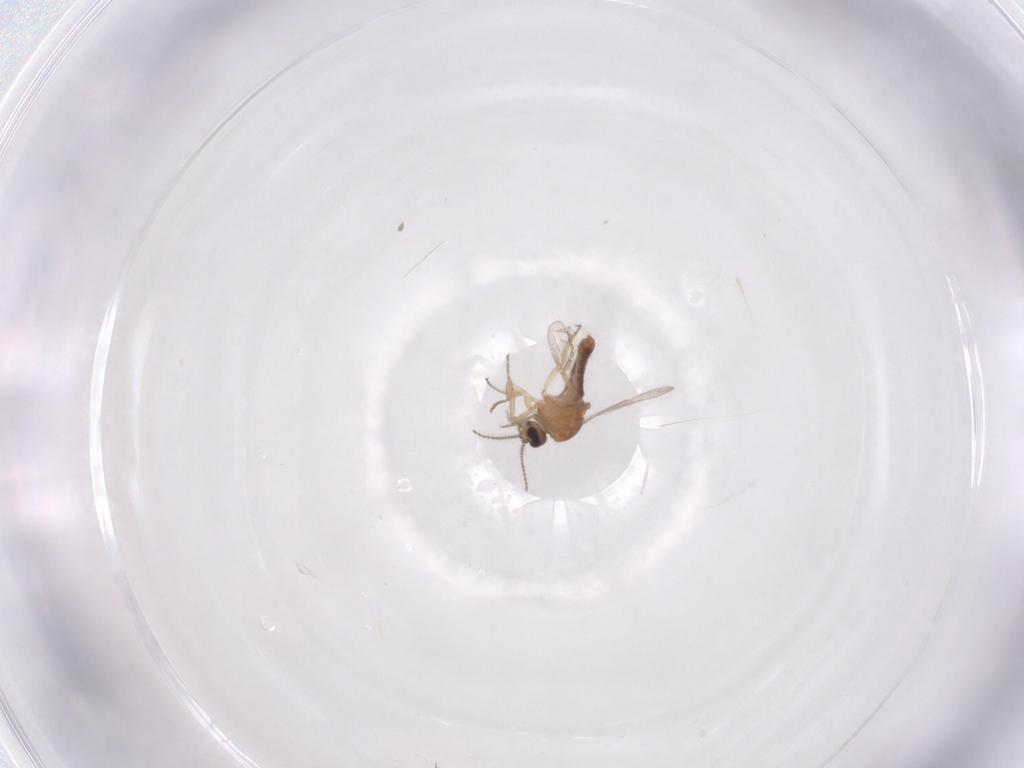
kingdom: Animalia
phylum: Arthropoda
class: Insecta
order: Diptera
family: Ceratopogonidae
